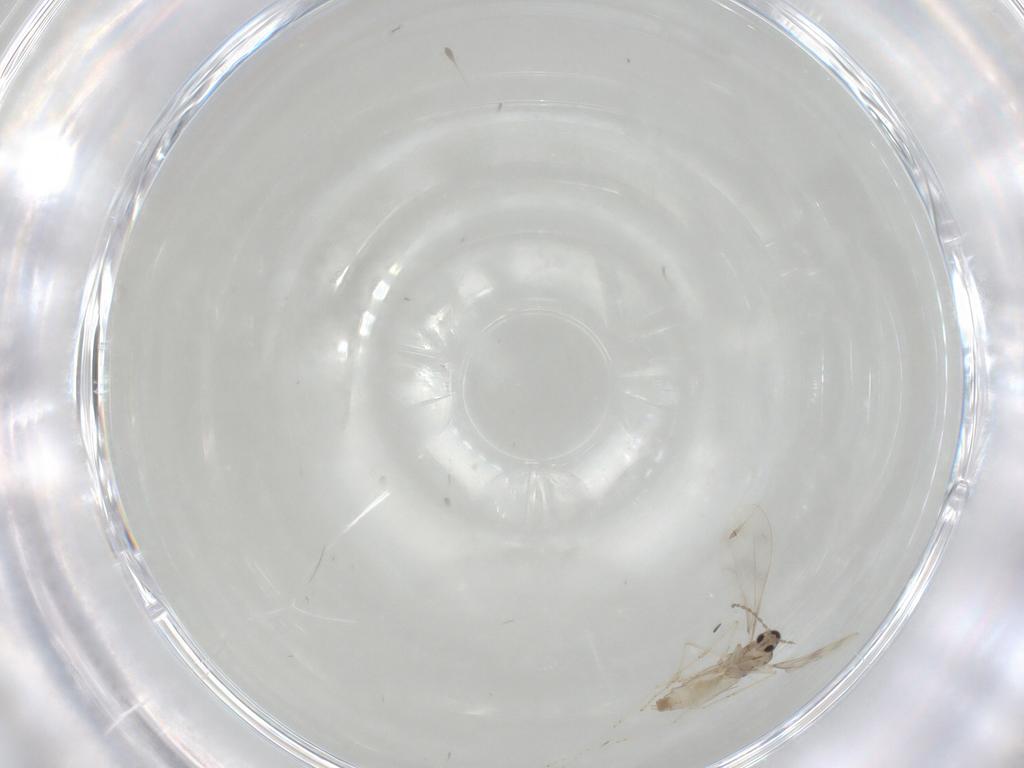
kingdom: Animalia
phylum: Arthropoda
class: Insecta
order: Diptera
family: Cecidomyiidae
